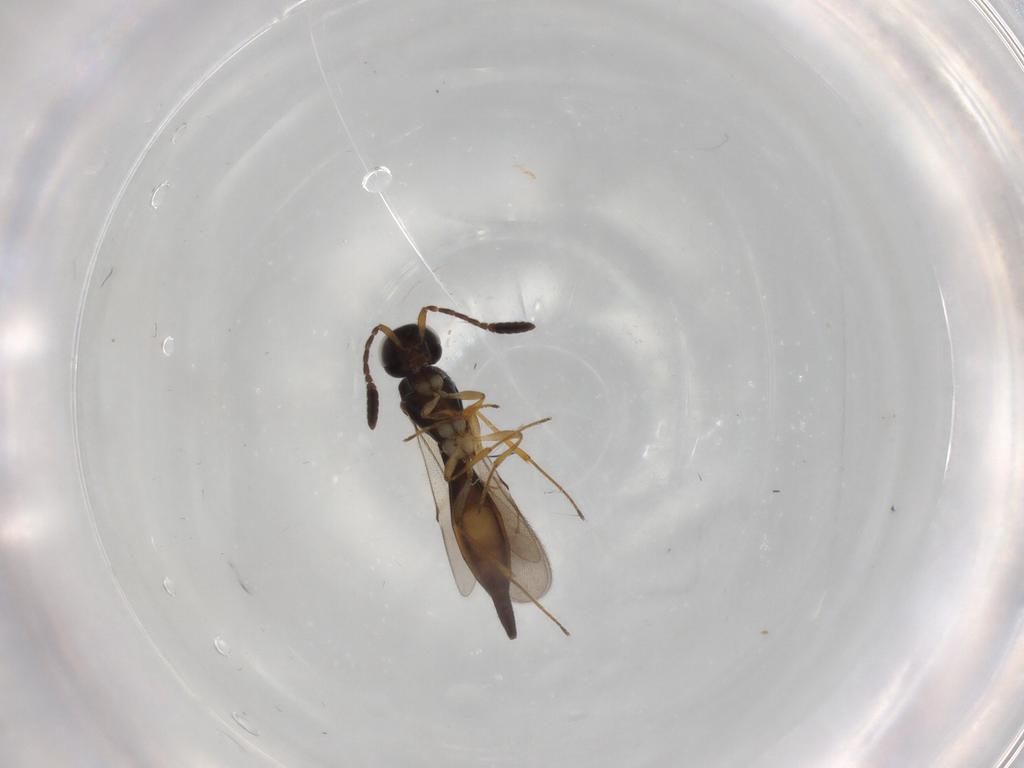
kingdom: Animalia
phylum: Arthropoda
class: Insecta
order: Hymenoptera
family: Scelionidae
